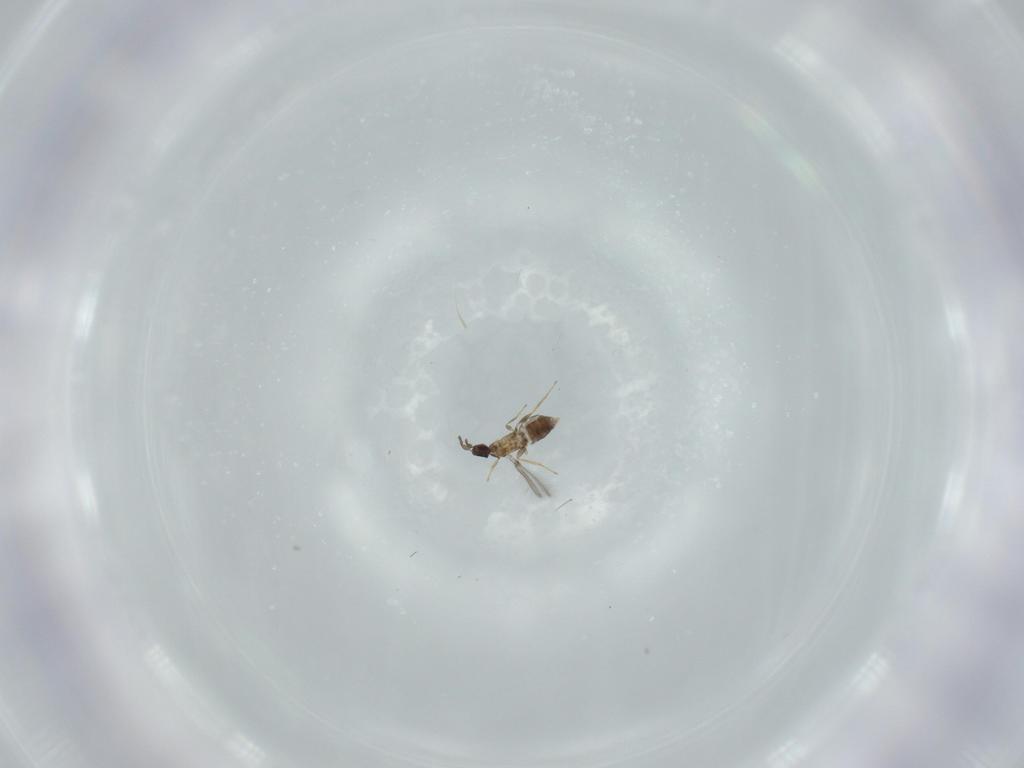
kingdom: Animalia
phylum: Arthropoda
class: Insecta
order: Hymenoptera
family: Mymaridae
